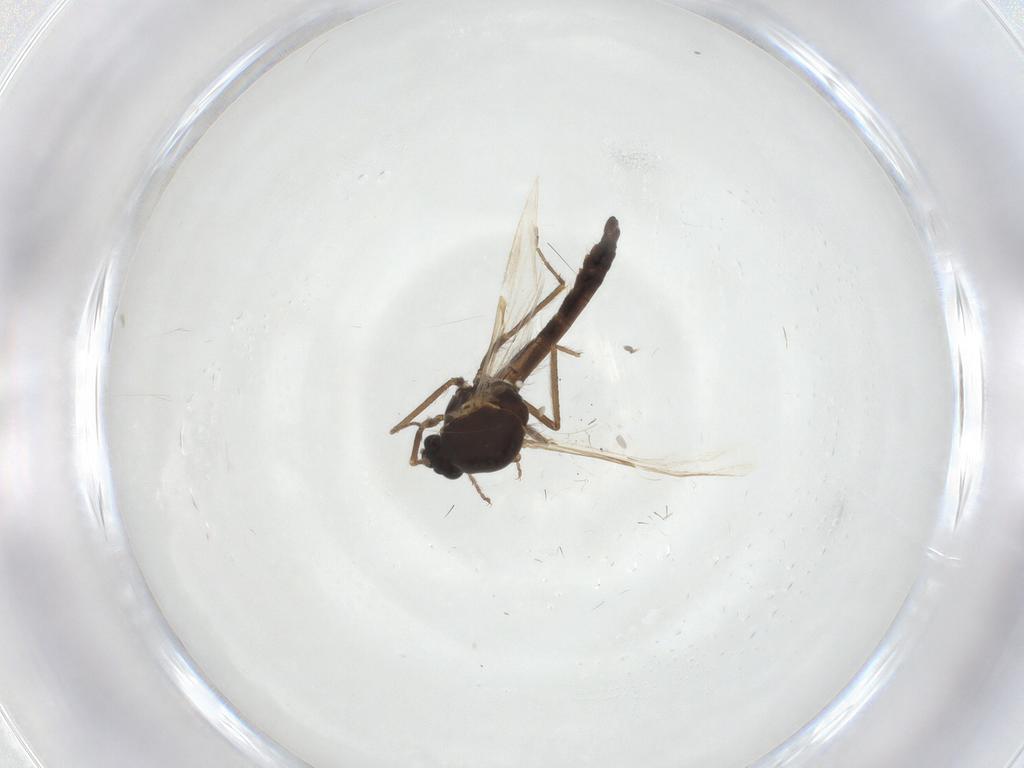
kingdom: Animalia
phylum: Arthropoda
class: Insecta
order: Diptera
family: Ceratopogonidae
